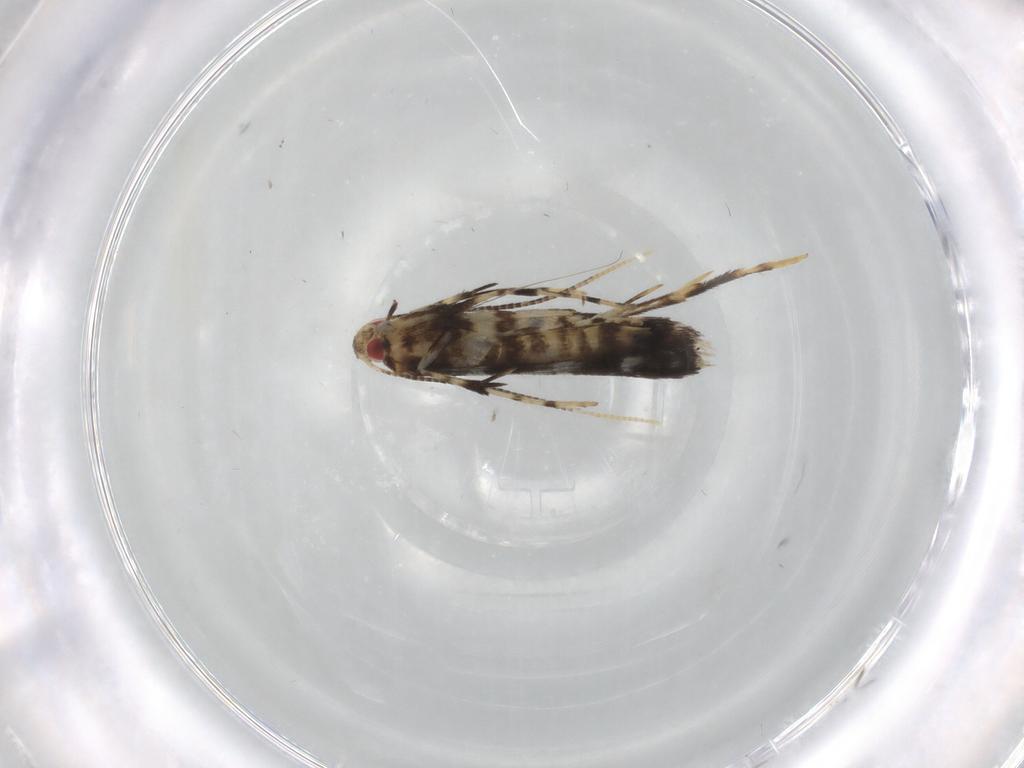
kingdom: Animalia
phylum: Arthropoda
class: Insecta
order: Lepidoptera
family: Gracillariidae
